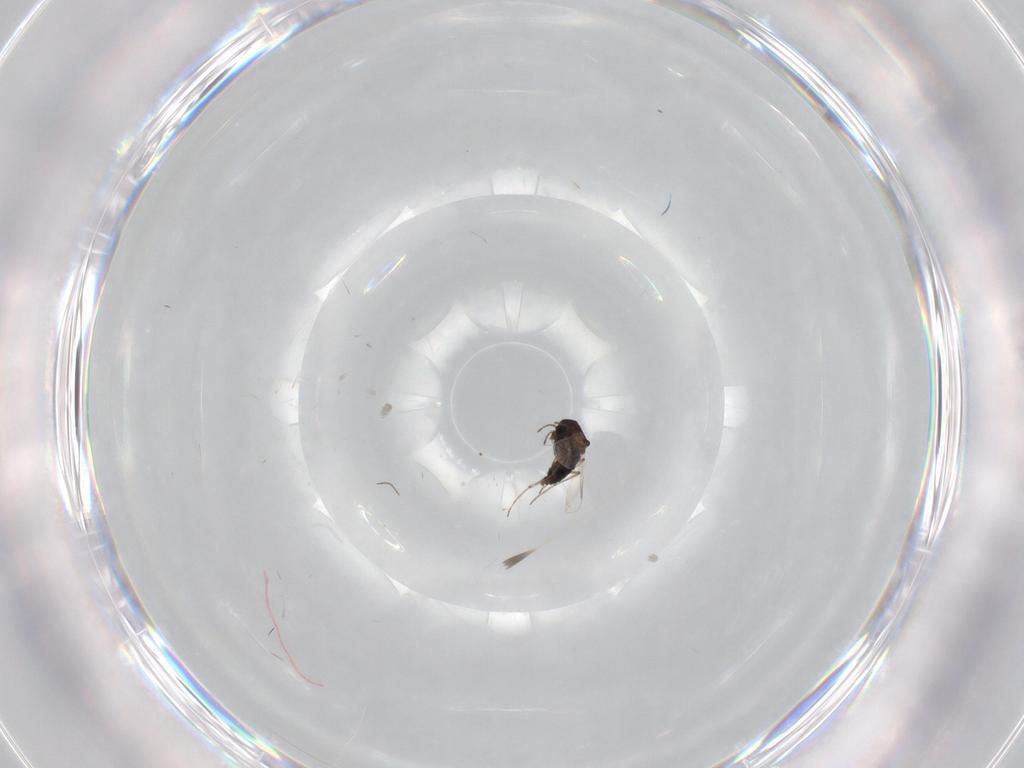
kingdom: Animalia
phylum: Arthropoda
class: Insecta
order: Diptera
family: Chironomidae
